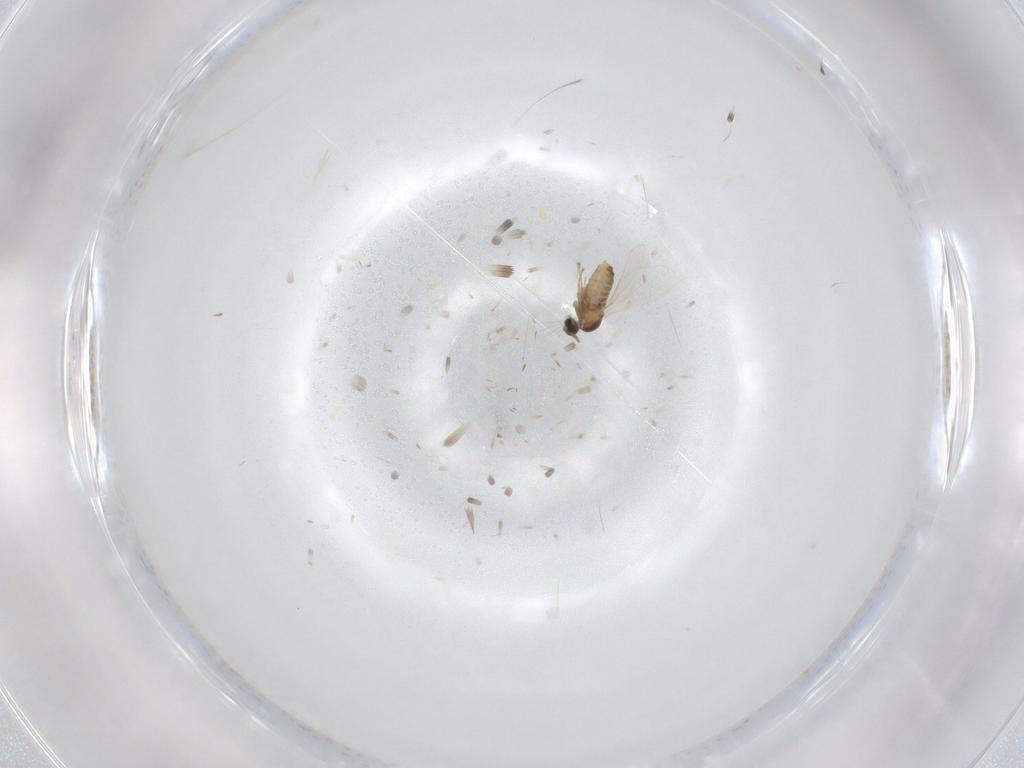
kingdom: Animalia
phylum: Arthropoda
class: Insecta
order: Diptera
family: Cecidomyiidae
